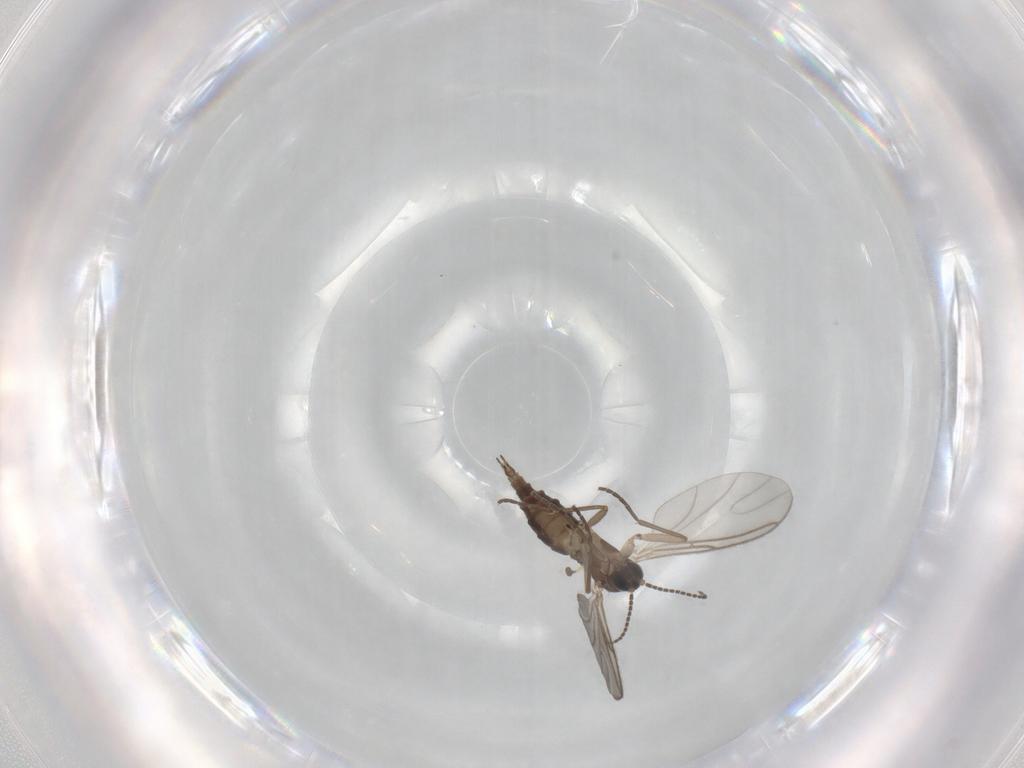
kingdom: Animalia
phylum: Arthropoda
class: Insecta
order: Diptera
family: Sciaridae
